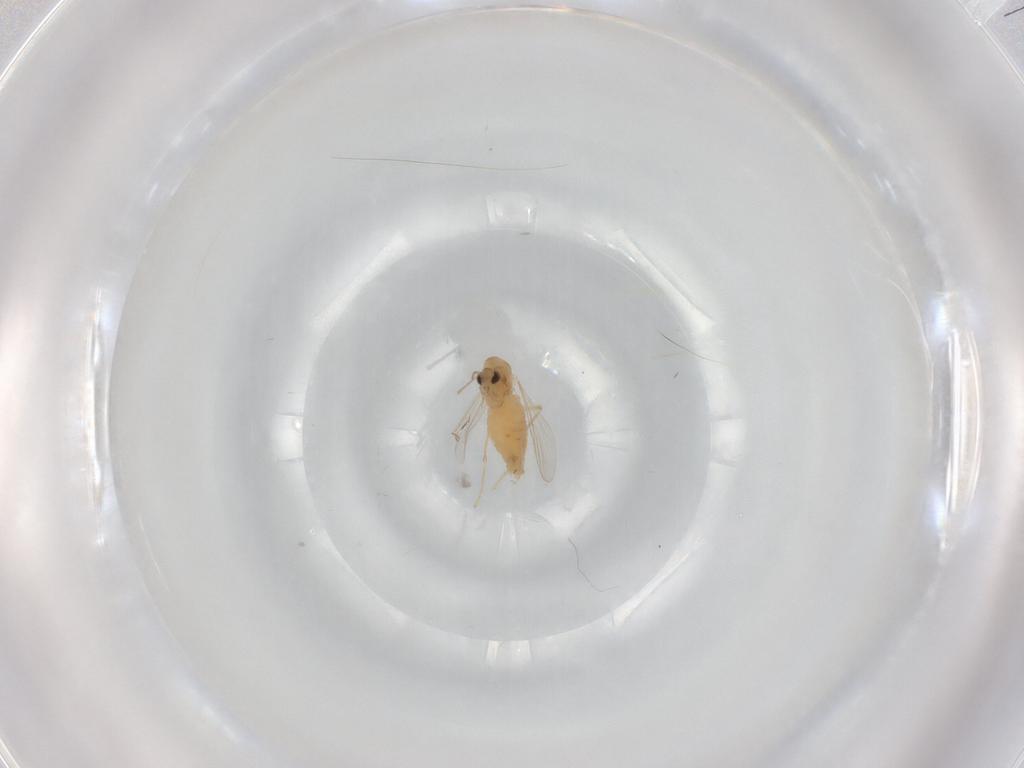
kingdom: Animalia
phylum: Arthropoda
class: Insecta
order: Diptera
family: Chironomidae
